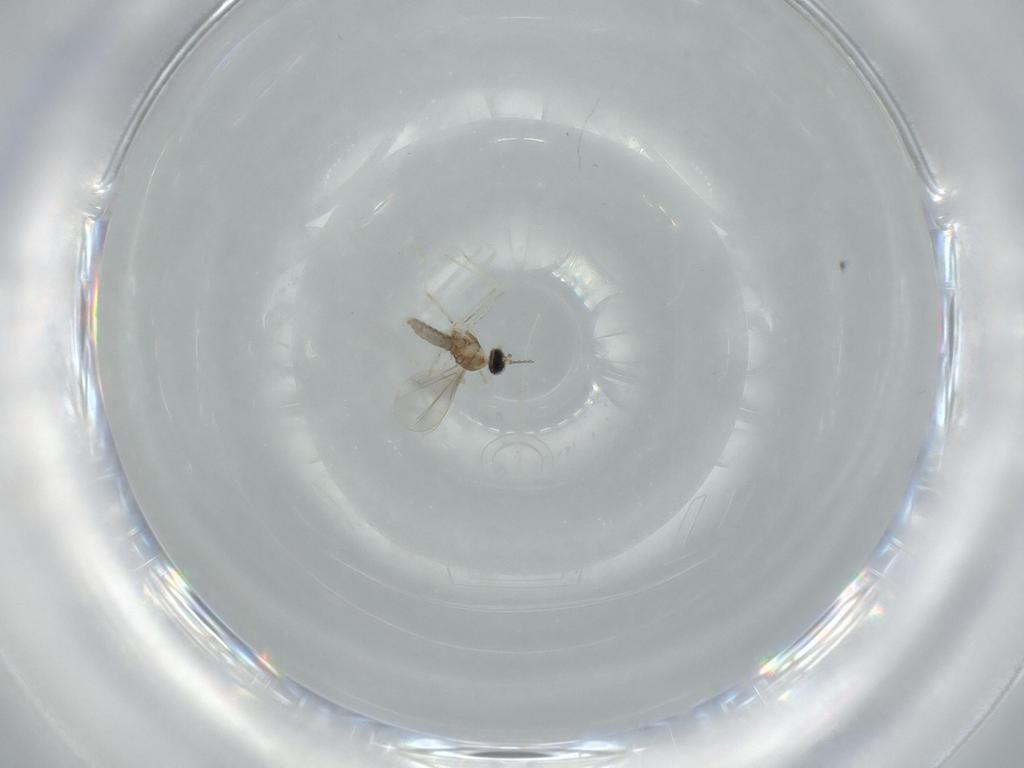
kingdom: Animalia
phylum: Arthropoda
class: Insecta
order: Diptera
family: Cecidomyiidae
